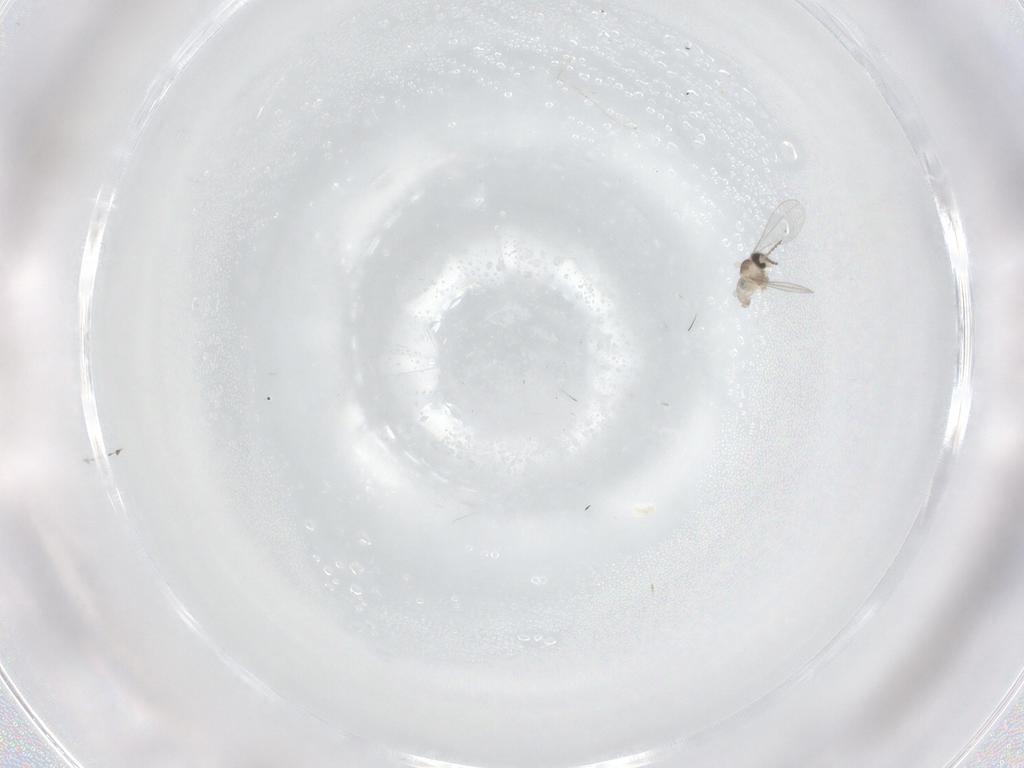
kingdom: Animalia
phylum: Arthropoda
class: Insecta
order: Diptera
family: Cecidomyiidae
